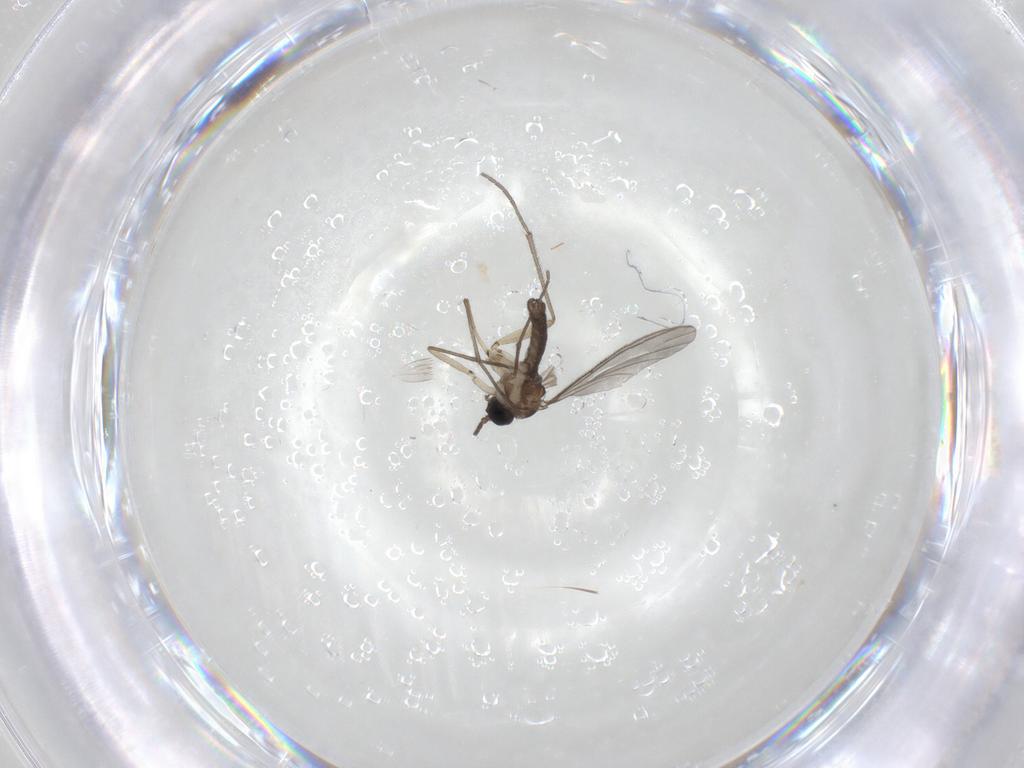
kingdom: Animalia
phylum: Arthropoda
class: Insecta
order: Diptera
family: Sciaridae
